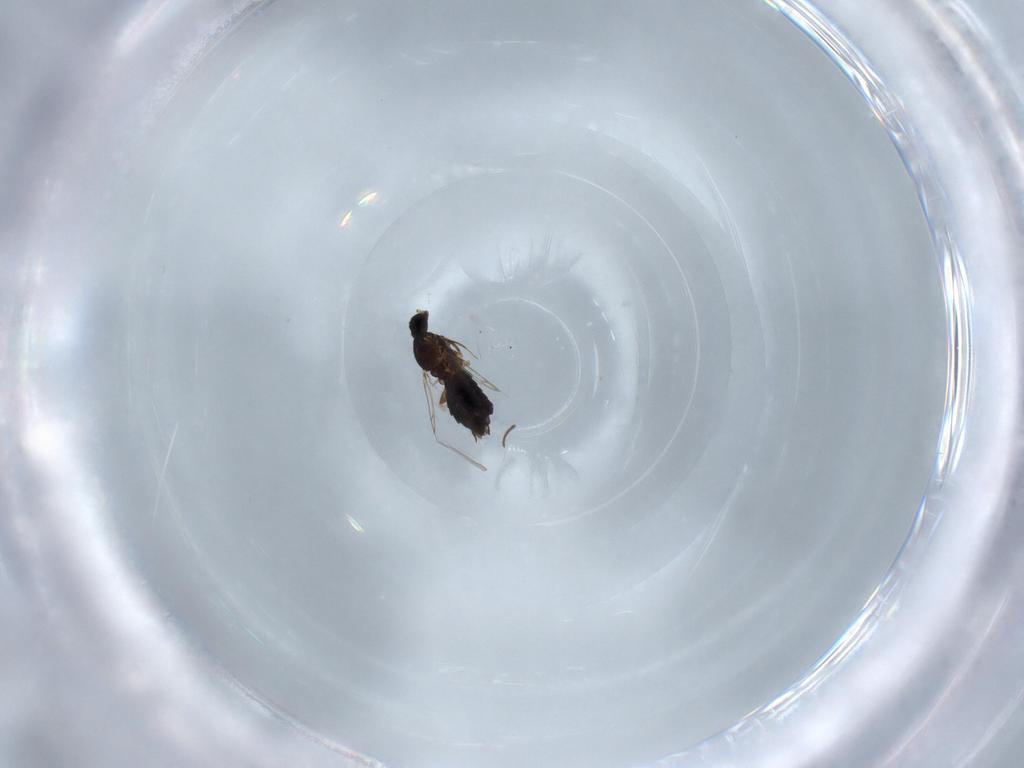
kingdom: Animalia
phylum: Arthropoda
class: Insecta
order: Diptera
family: Scatopsidae
